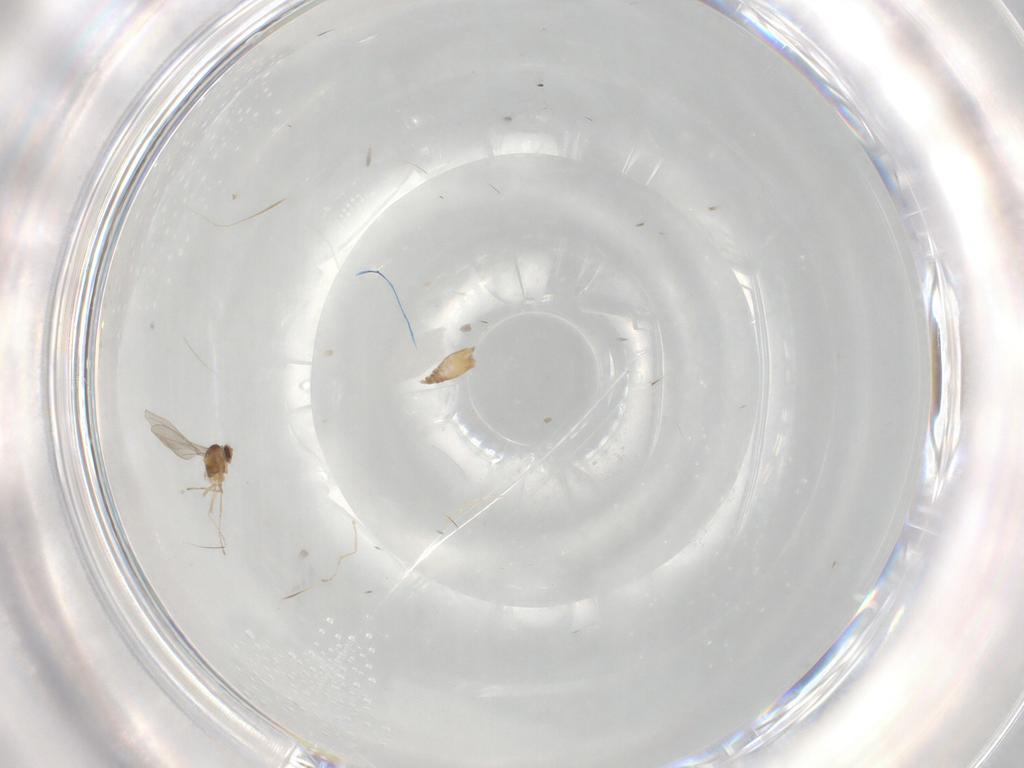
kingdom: Animalia
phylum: Arthropoda
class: Insecta
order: Diptera
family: Cecidomyiidae
